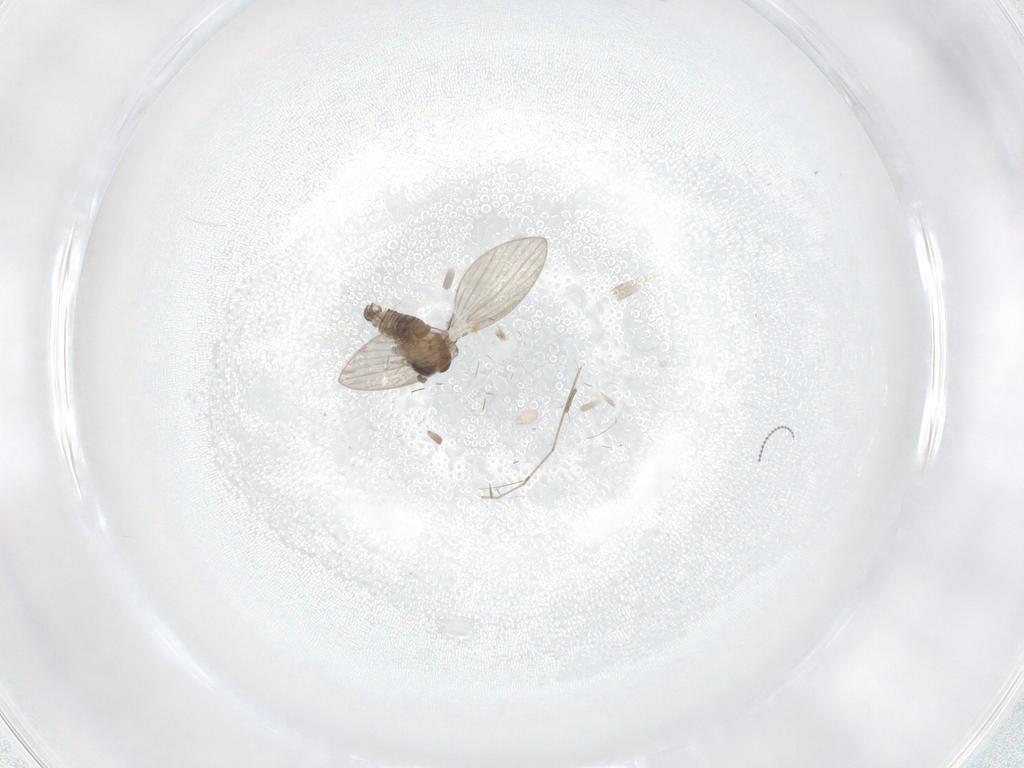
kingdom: Animalia
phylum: Arthropoda
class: Insecta
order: Diptera
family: Psychodidae
